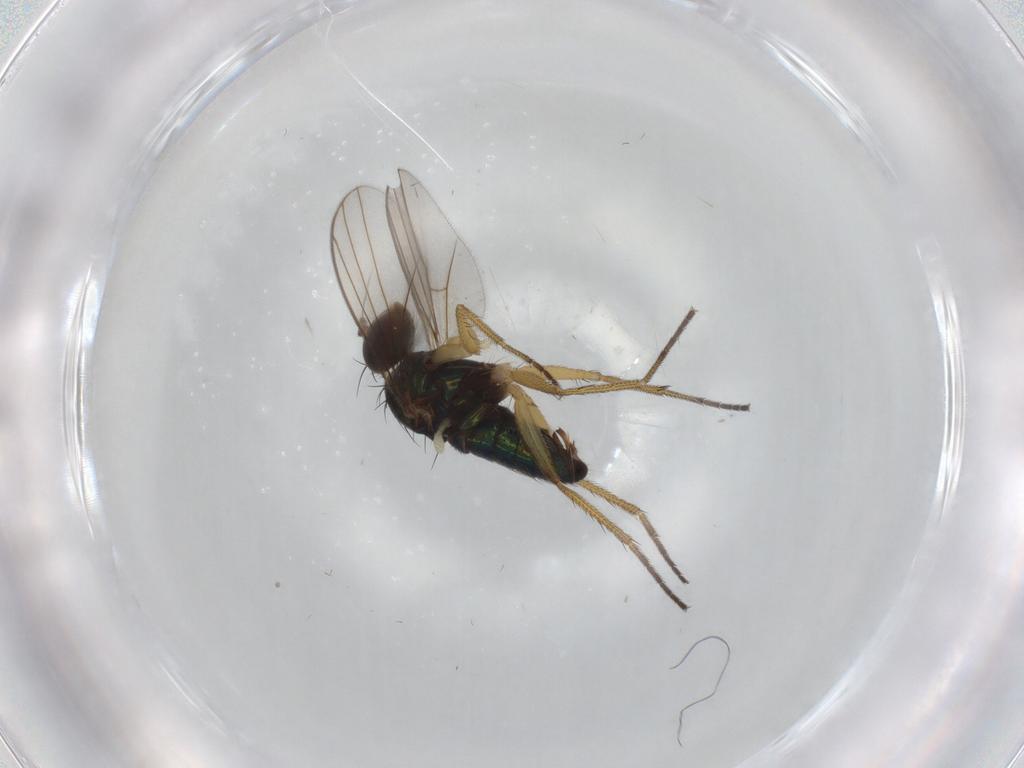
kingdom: Animalia
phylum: Arthropoda
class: Insecta
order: Diptera
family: Dolichopodidae
